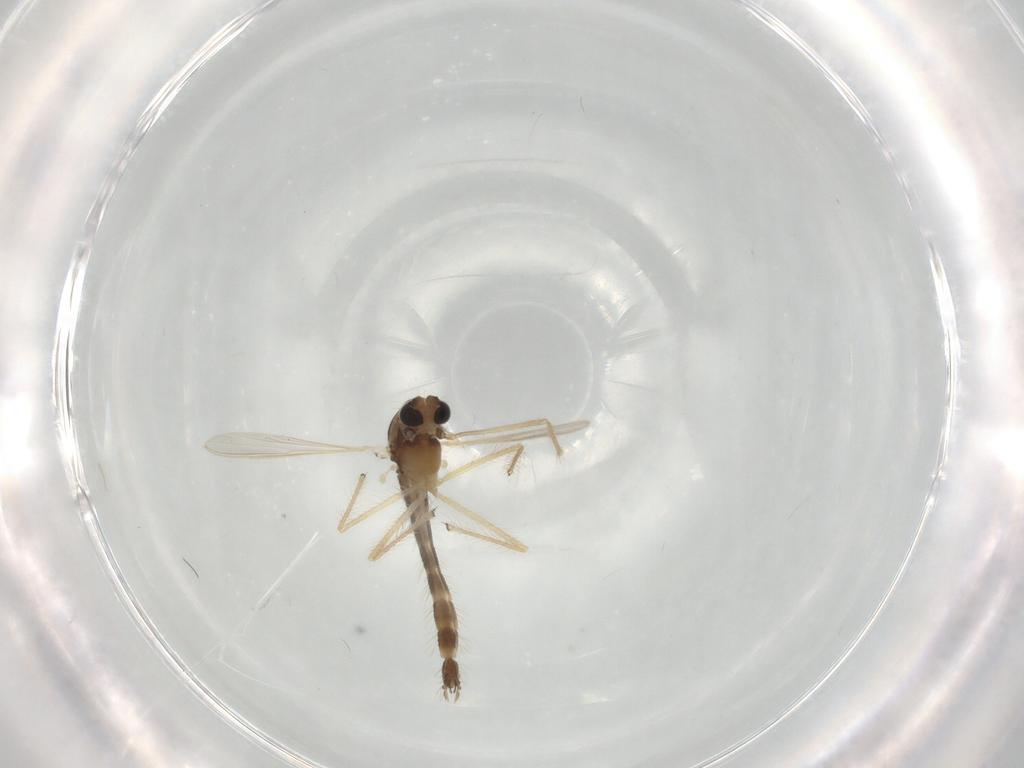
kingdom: Animalia
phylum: Arthropoda
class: Insecta
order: Diptera
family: Chironomidae
